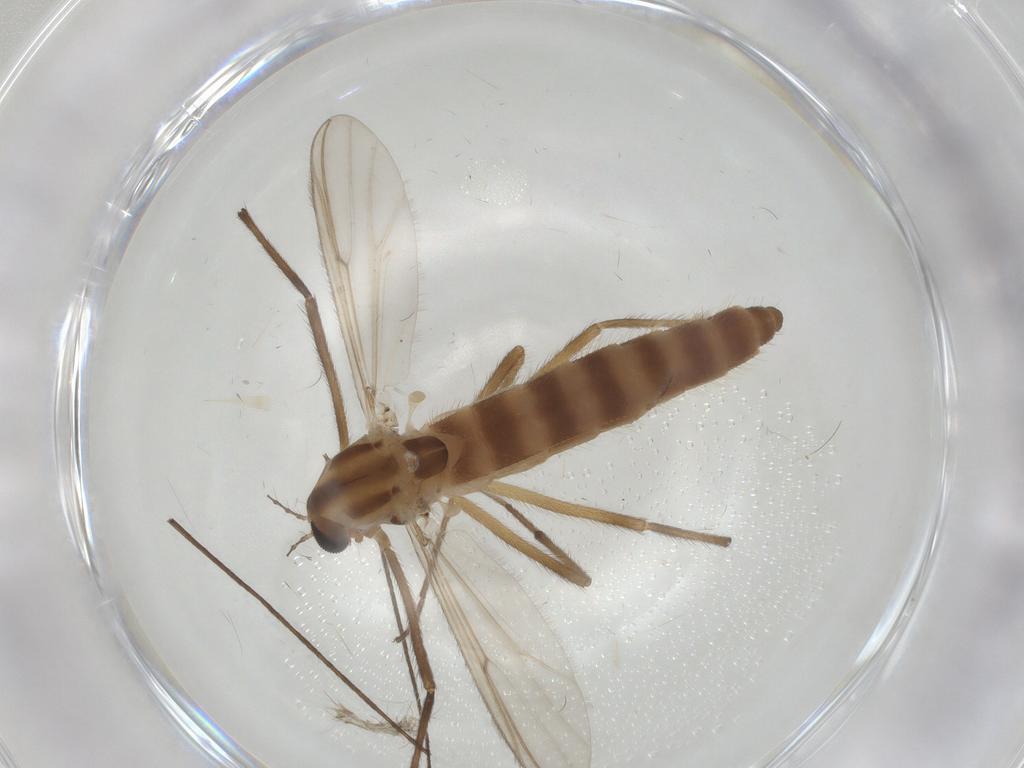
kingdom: Animalia
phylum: Arthropoda
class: Insecta
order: Diptera
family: Chironomidae
